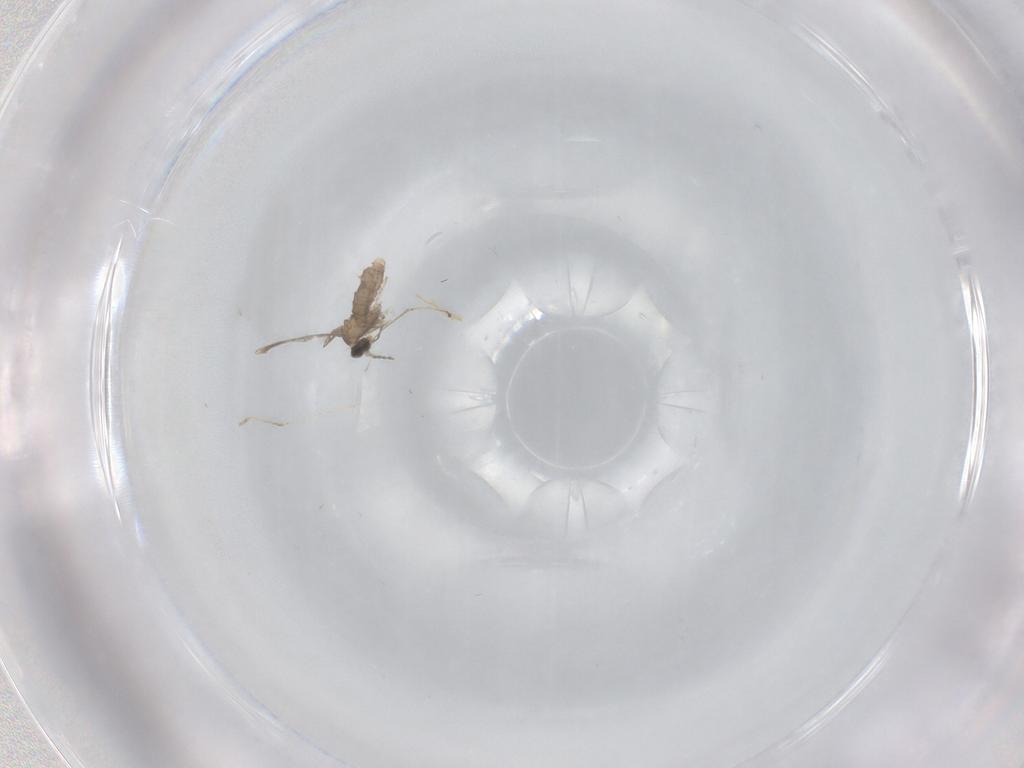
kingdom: Animalia
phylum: Arthropoda
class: Insecta
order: Diptera
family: Cecidomyiidae
